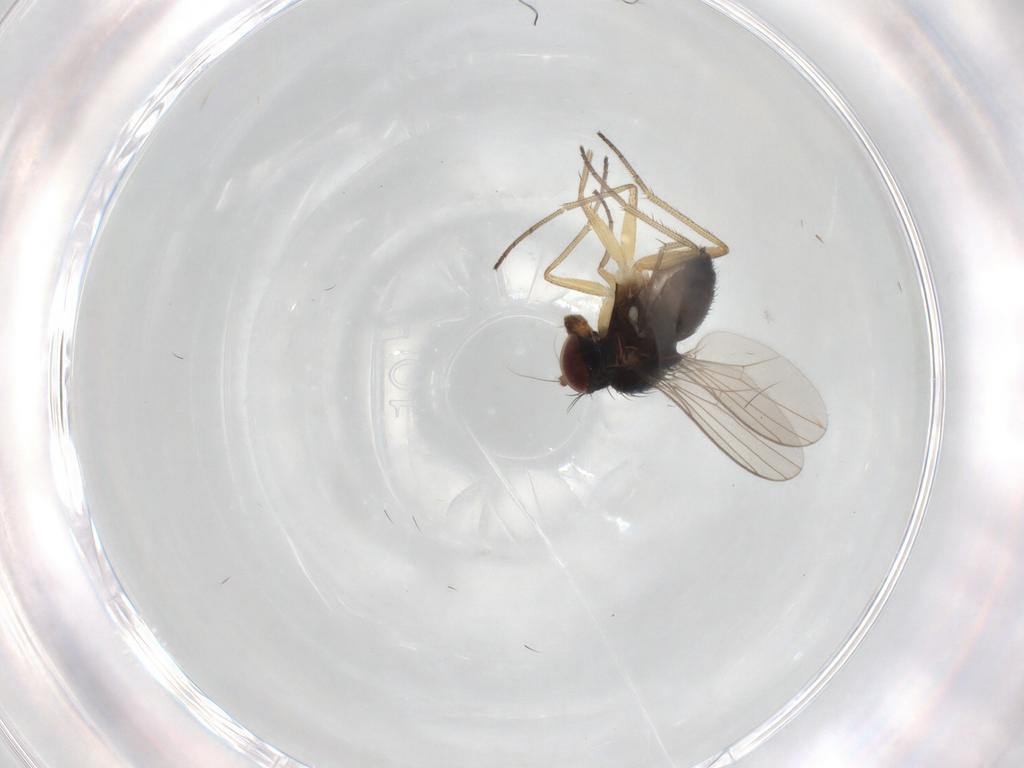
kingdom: Animalia
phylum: Arthropoda
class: Insecta
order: Diptera
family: Dolichopodidae
